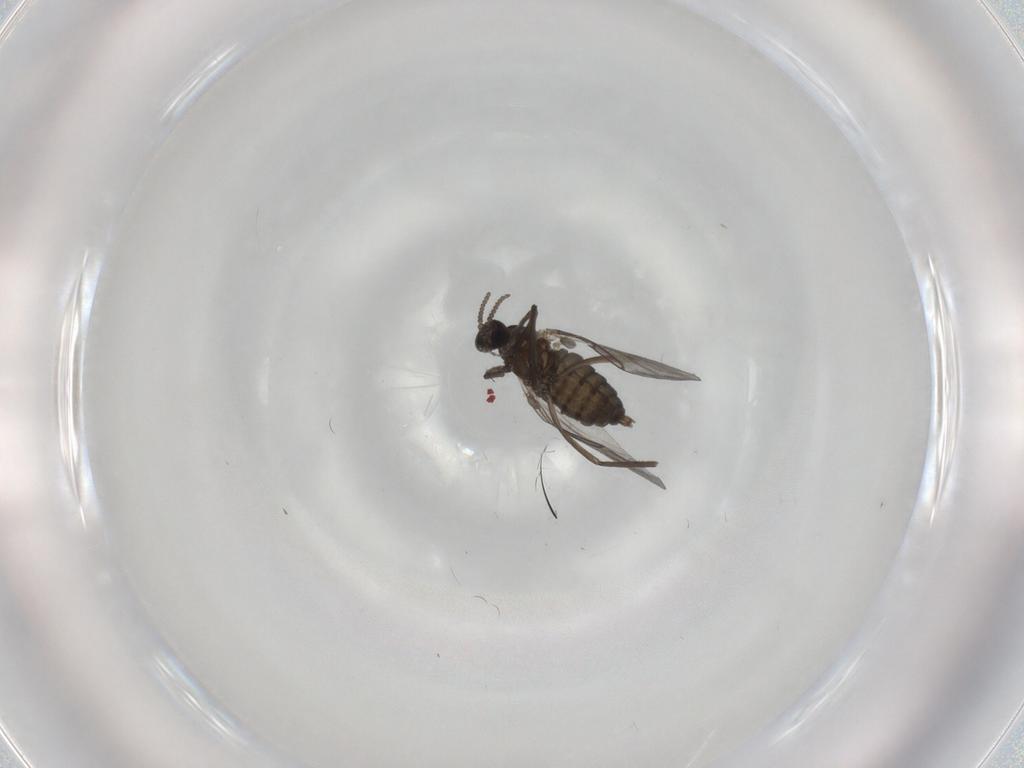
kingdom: Animalia
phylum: Arthropoda
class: Insecta
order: Diptera
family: Cecidomyiidae
